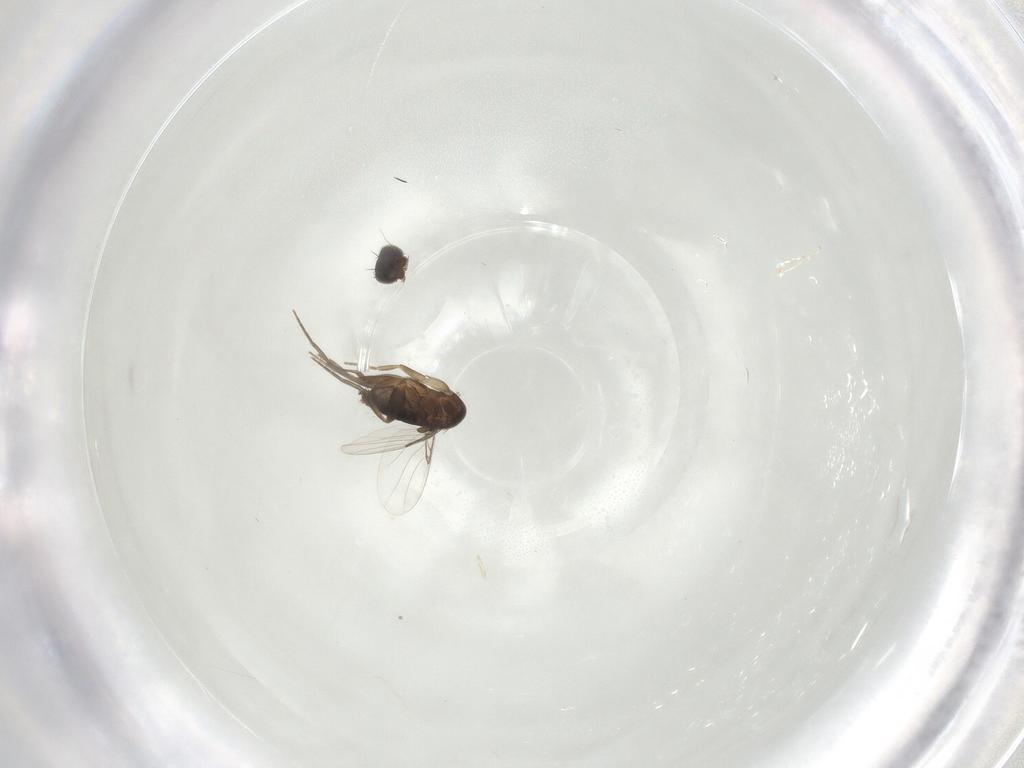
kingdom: Animalia
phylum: Arthropoda
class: Insecta
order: Diptera
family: Phoridae
